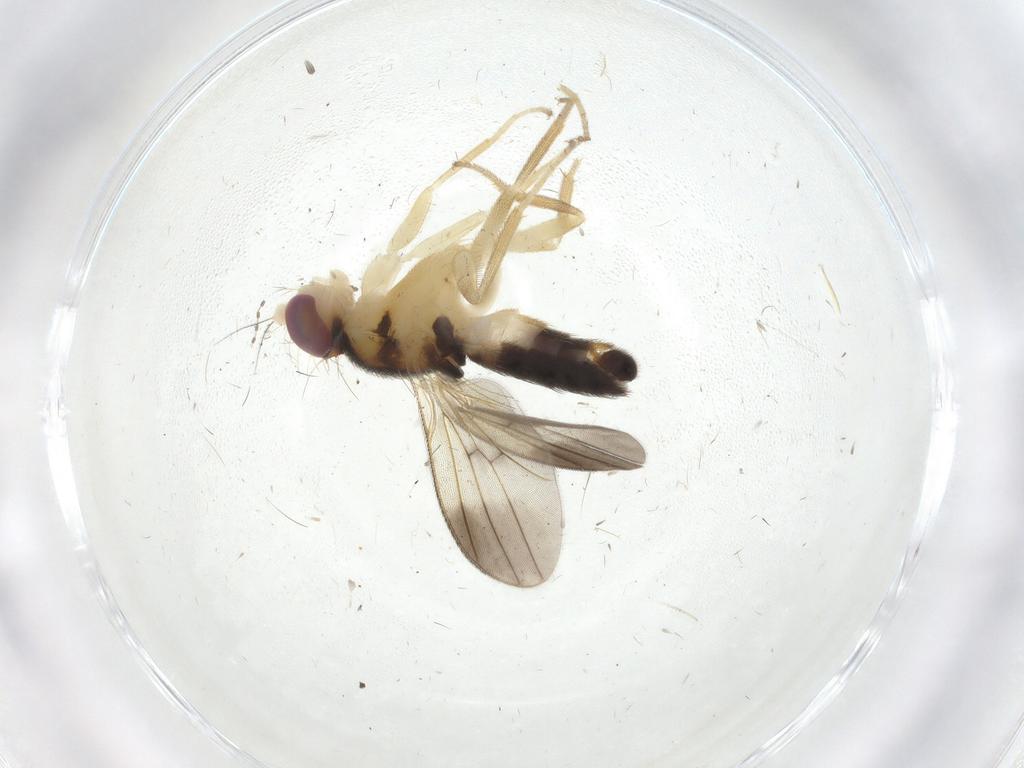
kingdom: Animalia
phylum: Arthropoda
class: Insecta
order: Diptera
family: Clusiidae
